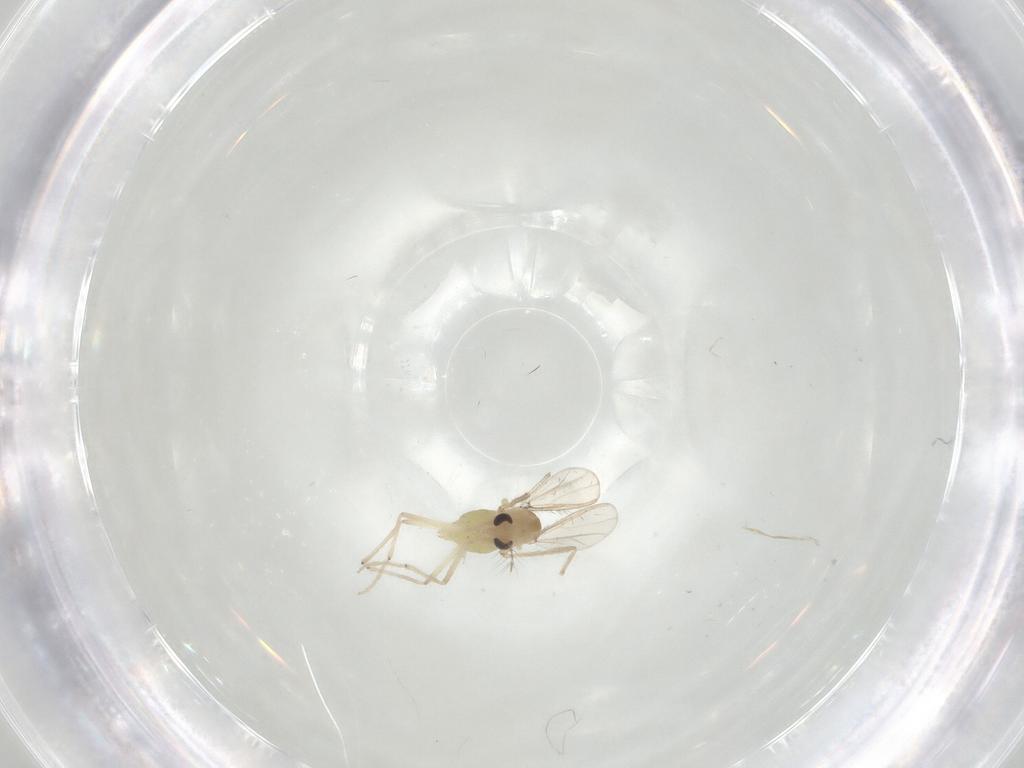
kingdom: Animalia
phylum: Arthropoda
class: Insecta
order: Diptera
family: Chironomidae
